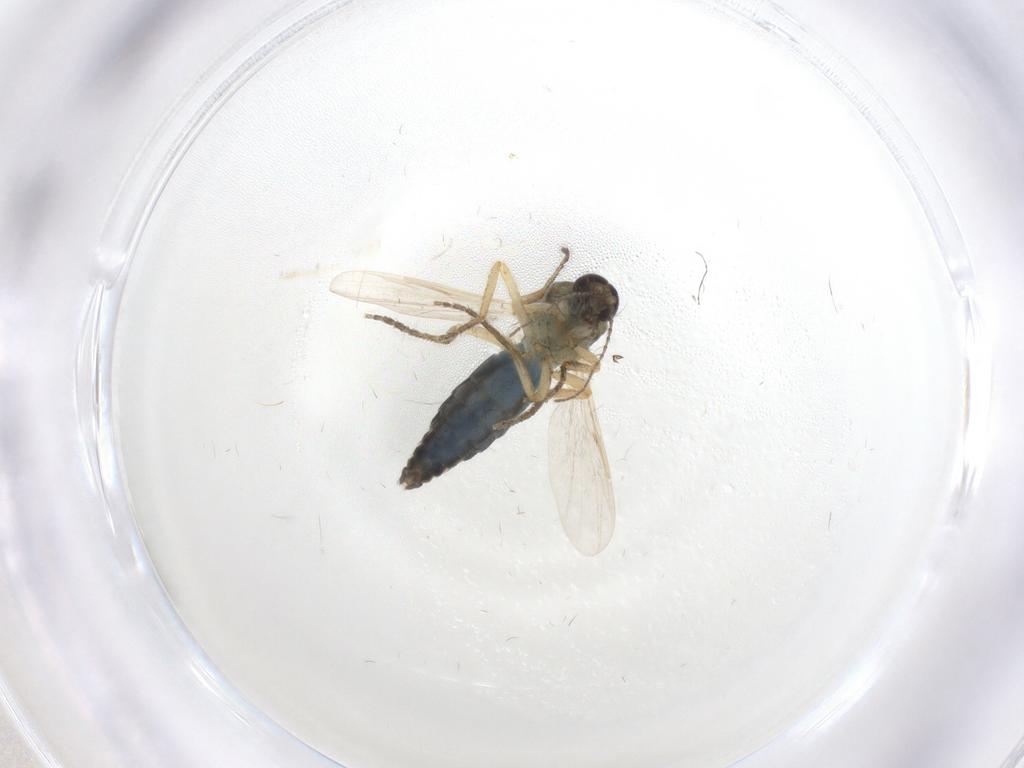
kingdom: Animalia
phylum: Arthropoda
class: Insecta
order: Diptera
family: Ceratopogonidae
